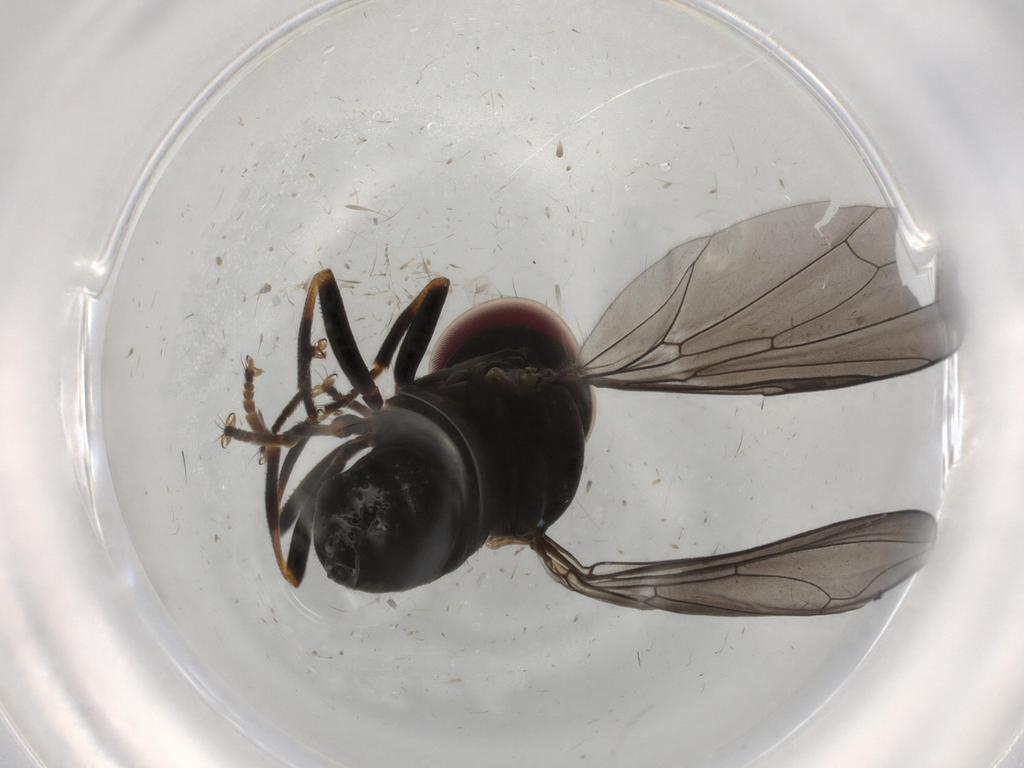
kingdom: Animalia
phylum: Arthropoda
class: Insecta
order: Diptera
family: Pipunculidae
